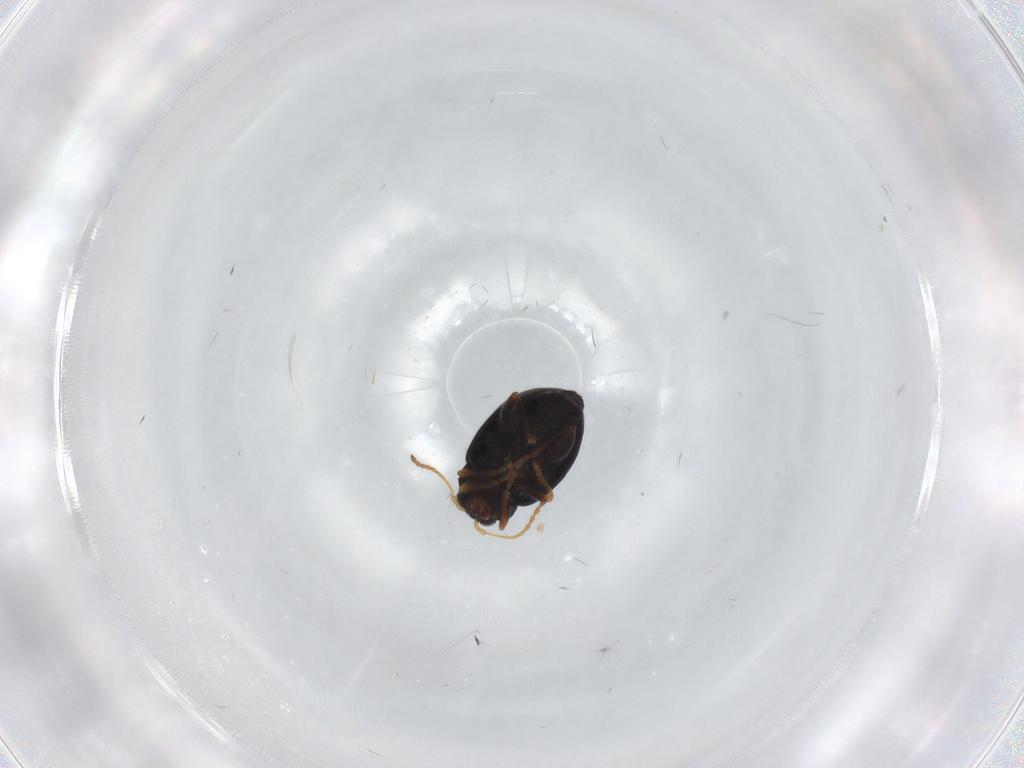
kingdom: Animalia
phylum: Arthropoda
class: Insecta
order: Coleoptera
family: Chrysomelidae
